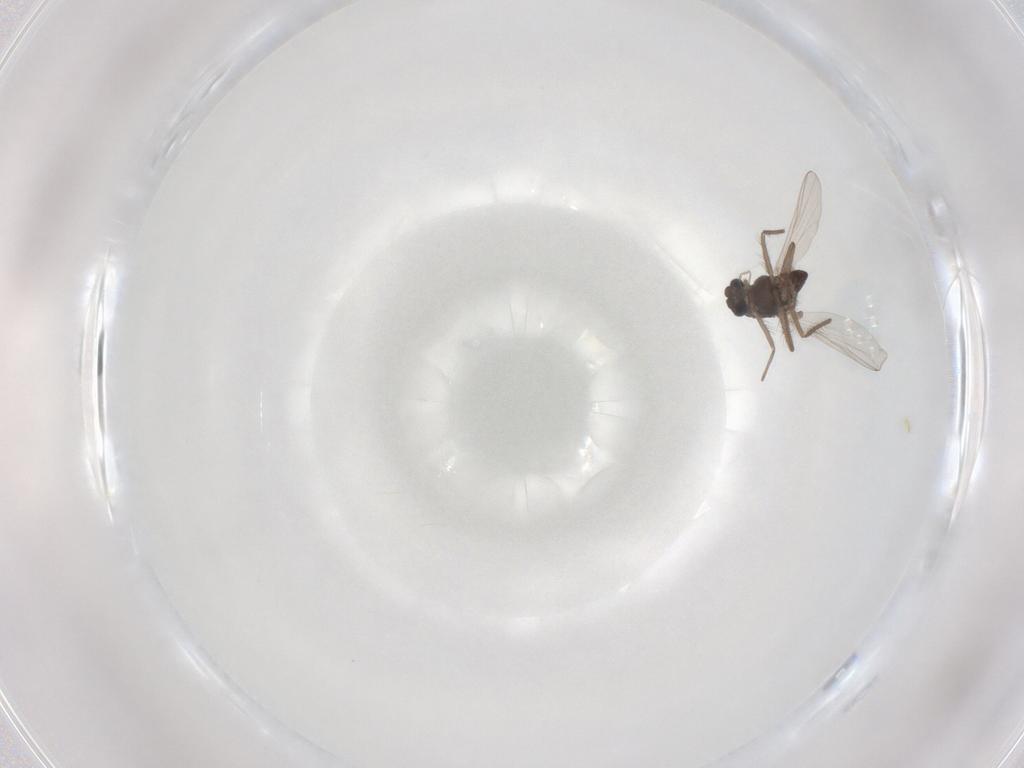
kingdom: Animalia
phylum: Arthropoda
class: Insecta
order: Diptera
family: Chironomidae
